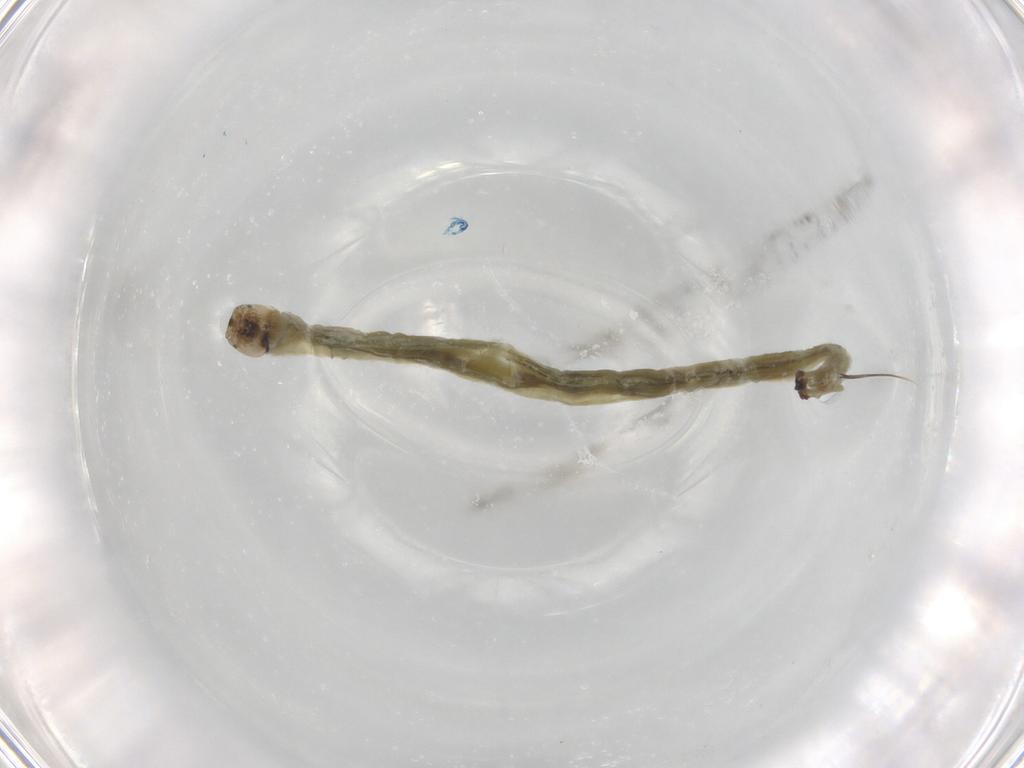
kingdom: Animalia
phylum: Arthropoda
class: Insecta
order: Diptera
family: Chironomidae
